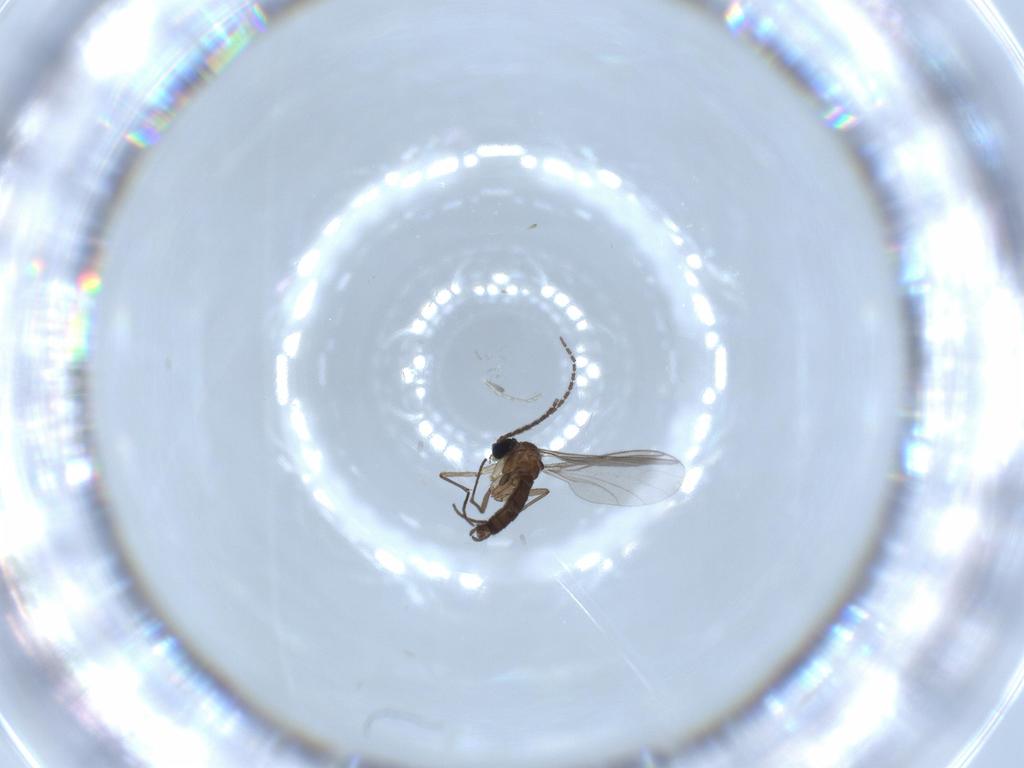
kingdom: Animalia
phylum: Arthropoda
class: Insecta
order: Diptera
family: Sciaridae
